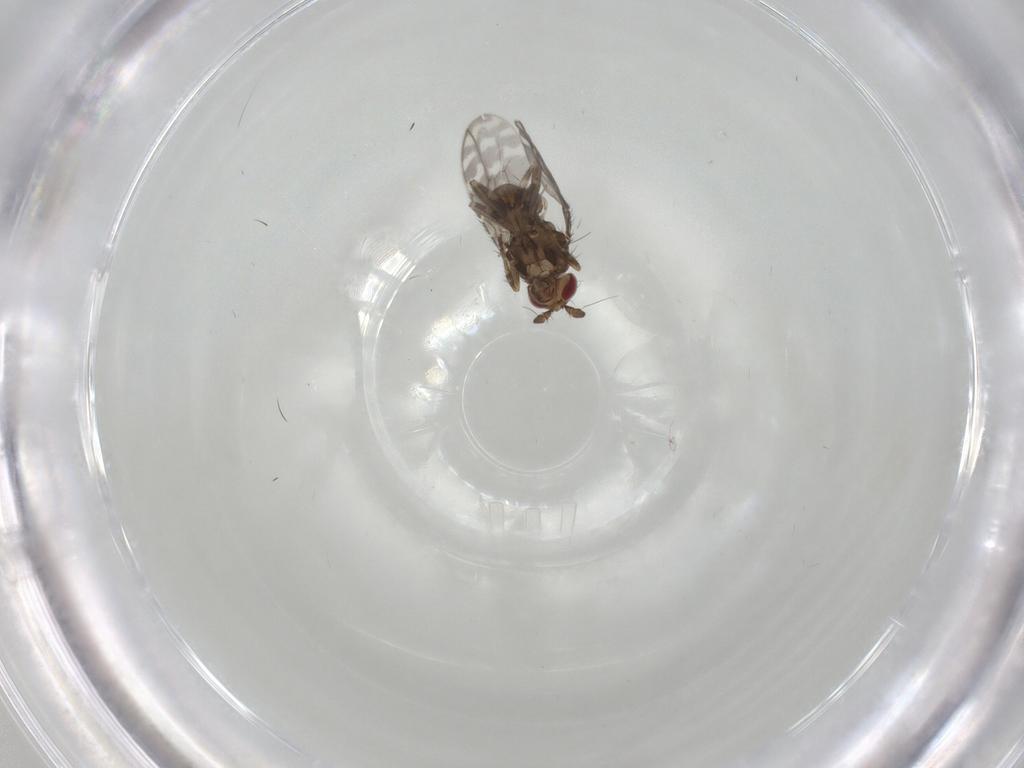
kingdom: Animalia
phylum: Arthropoda
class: Insecta
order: Diptera
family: Sphaeroceridae
